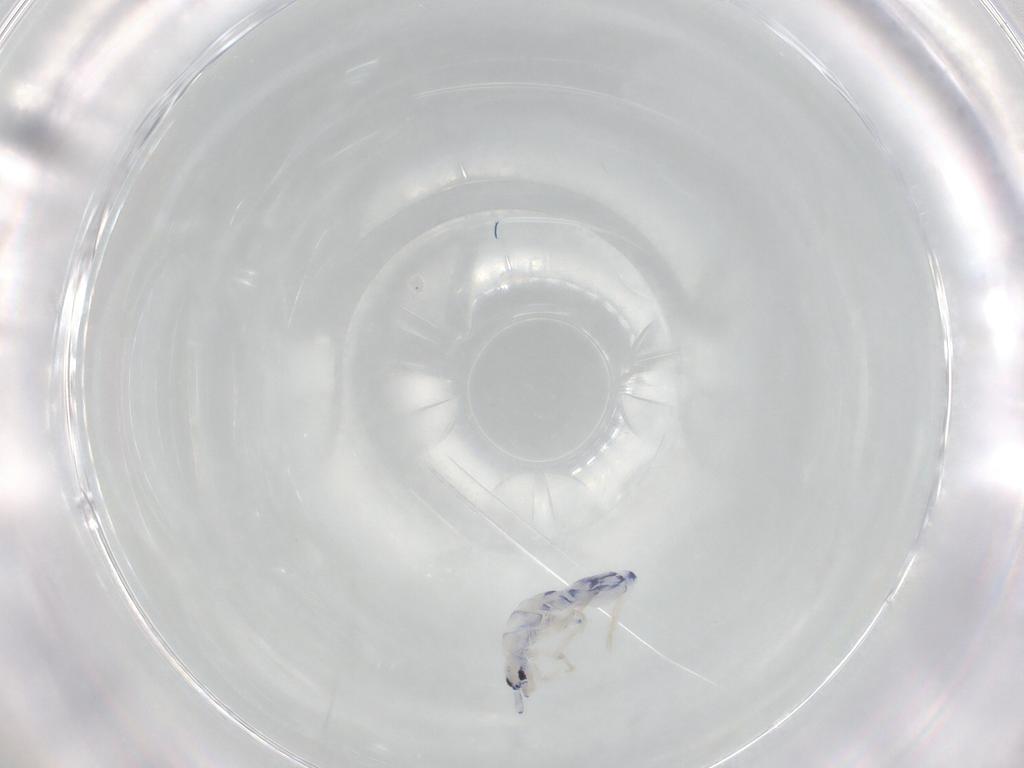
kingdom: Animalia
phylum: Arthropoda
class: Collembola
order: Entomobryomorpha
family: Entomobryidae
